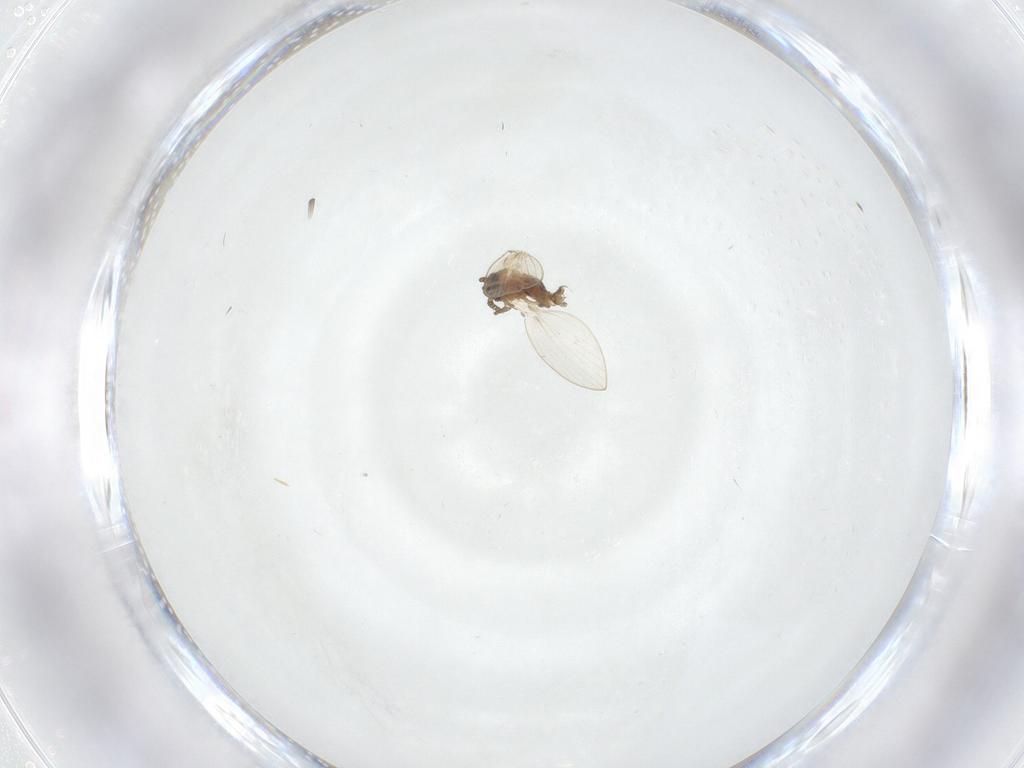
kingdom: Animalia
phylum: Arthropoda
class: Insecta
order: Diptera
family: Psychodidae
